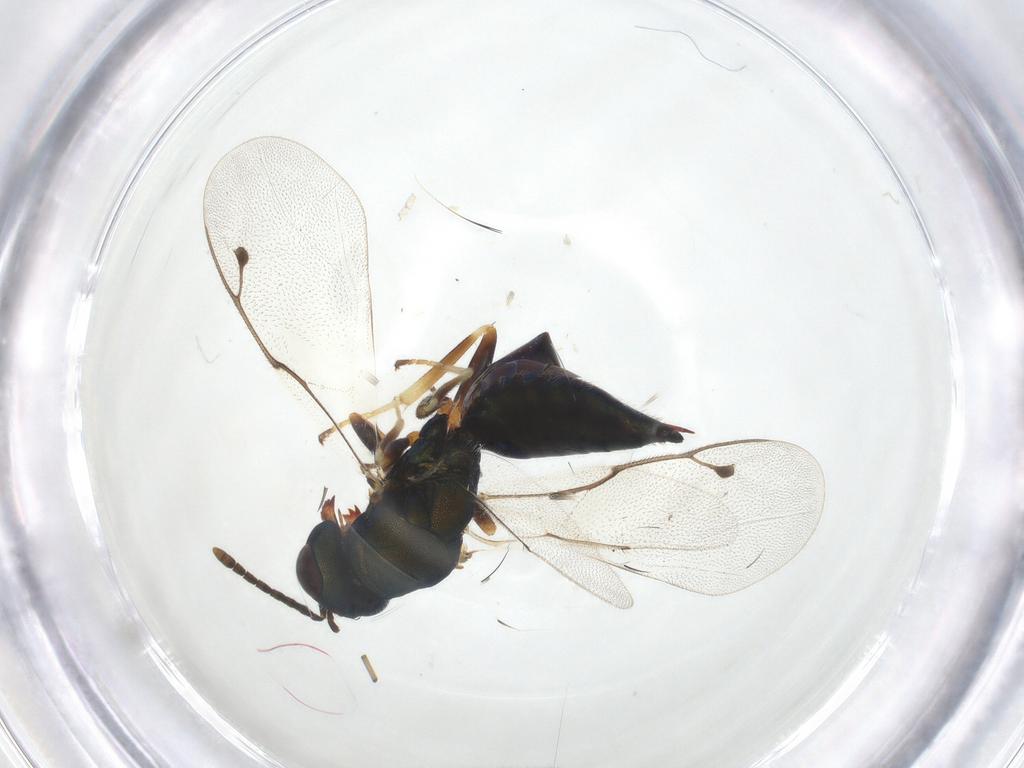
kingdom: Animalia
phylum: Arthropoda
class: Insecta
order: Hymenoptera
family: Pteromalidae
